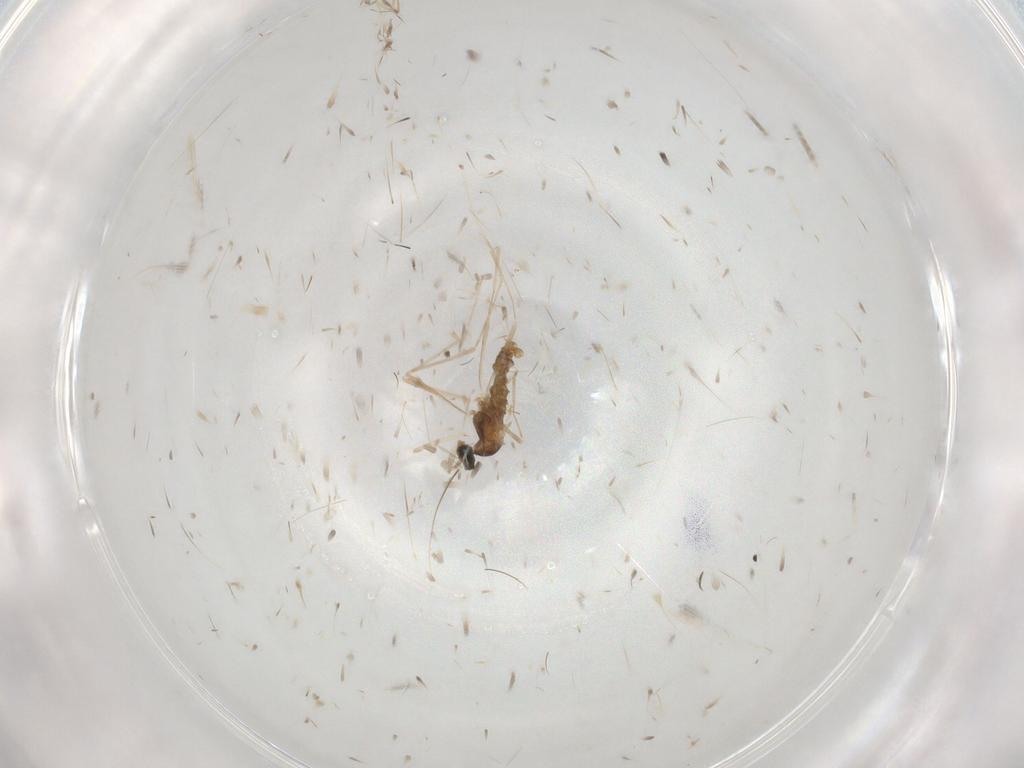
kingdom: Animalia
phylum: Arthropoda
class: Insecta
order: Diptera
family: Cecidomyiidae
